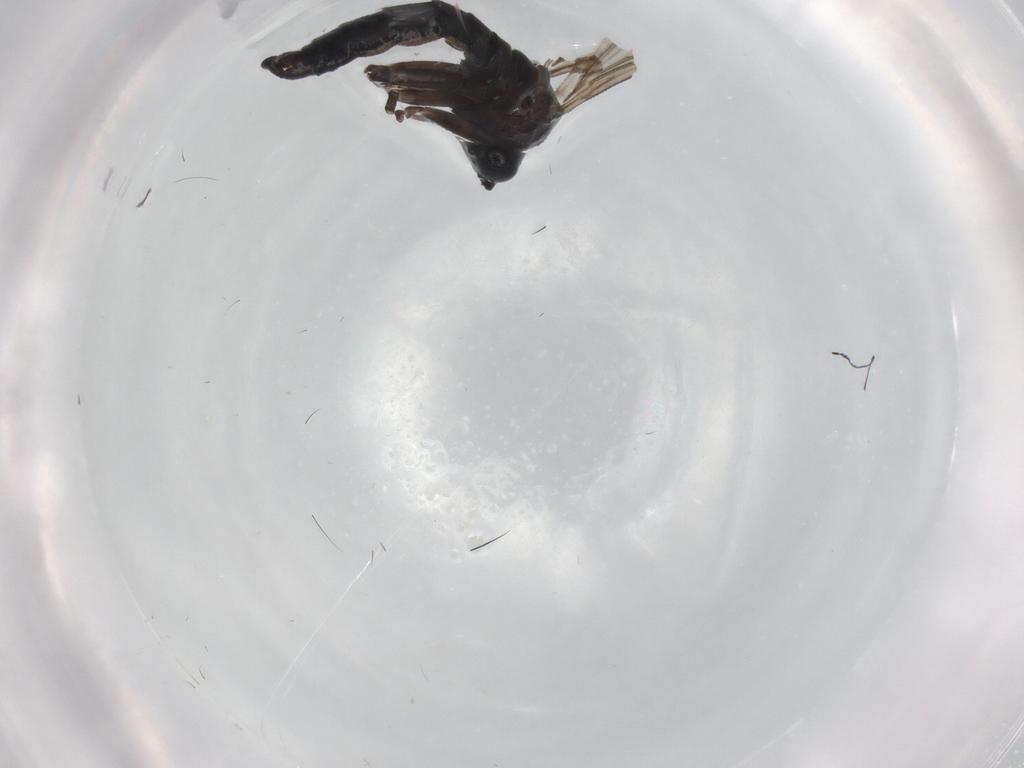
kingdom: Animalia
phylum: Arthropoda
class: Insecta
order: Diptera
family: Sciaridae
